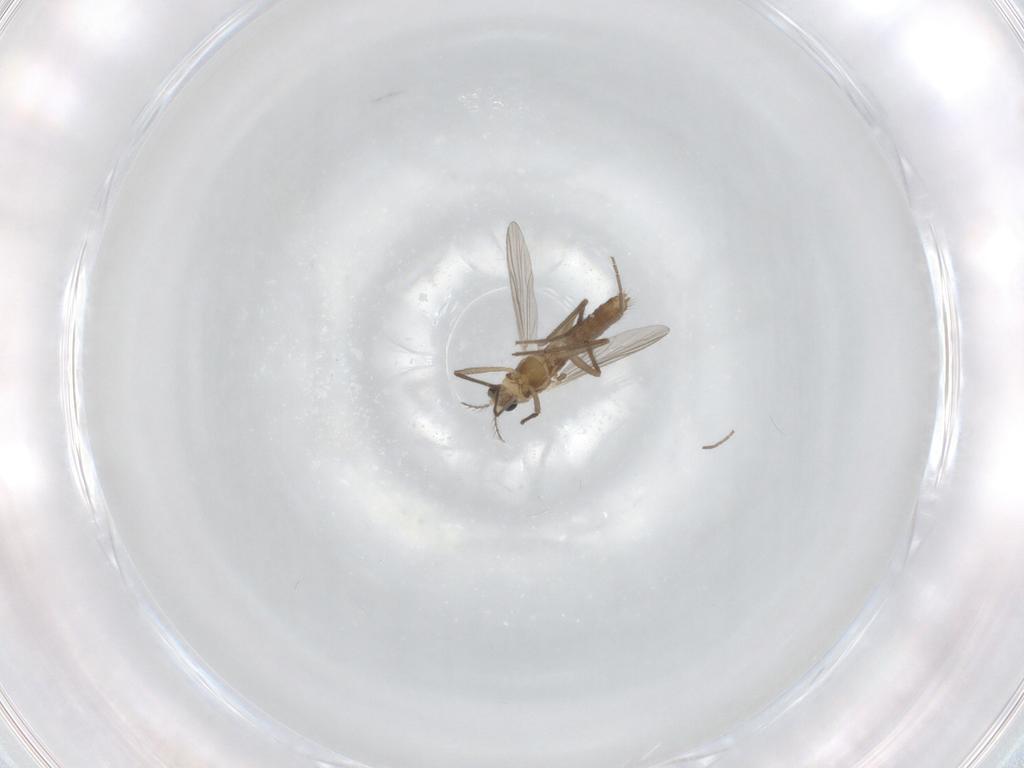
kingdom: Animalia
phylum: Arthropoda
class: Insecta
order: Diptera
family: Chironomidae
